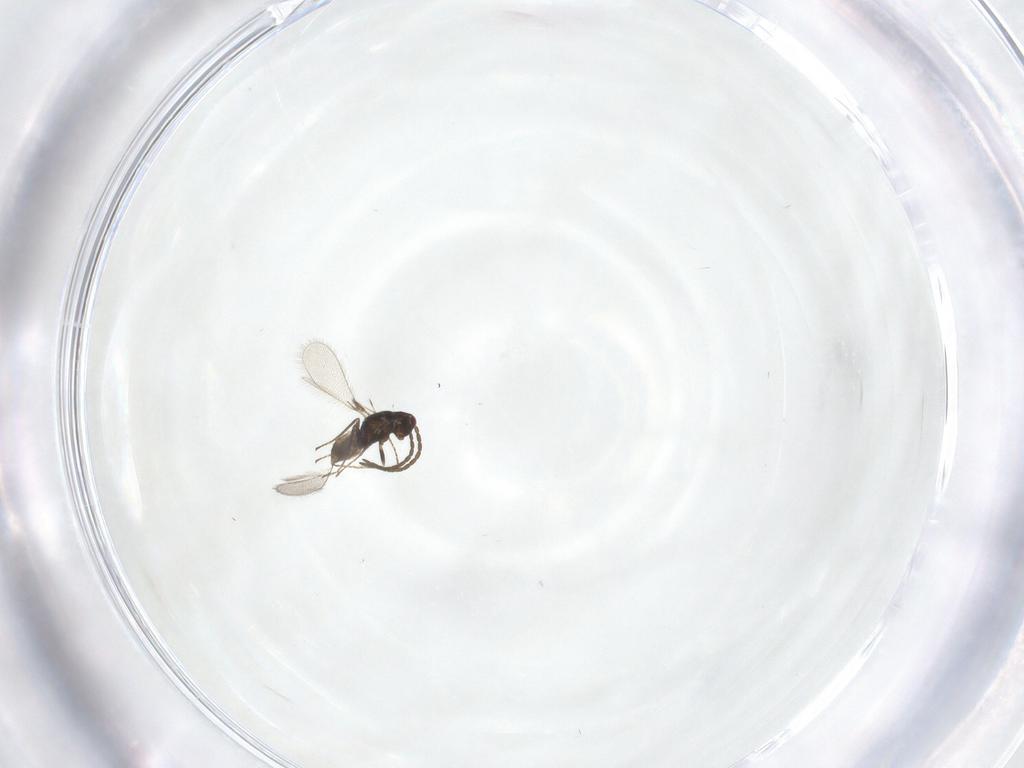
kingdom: Animalia
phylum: Arthropoda
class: Insecta
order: Hymenoptera
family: Mymaridae
